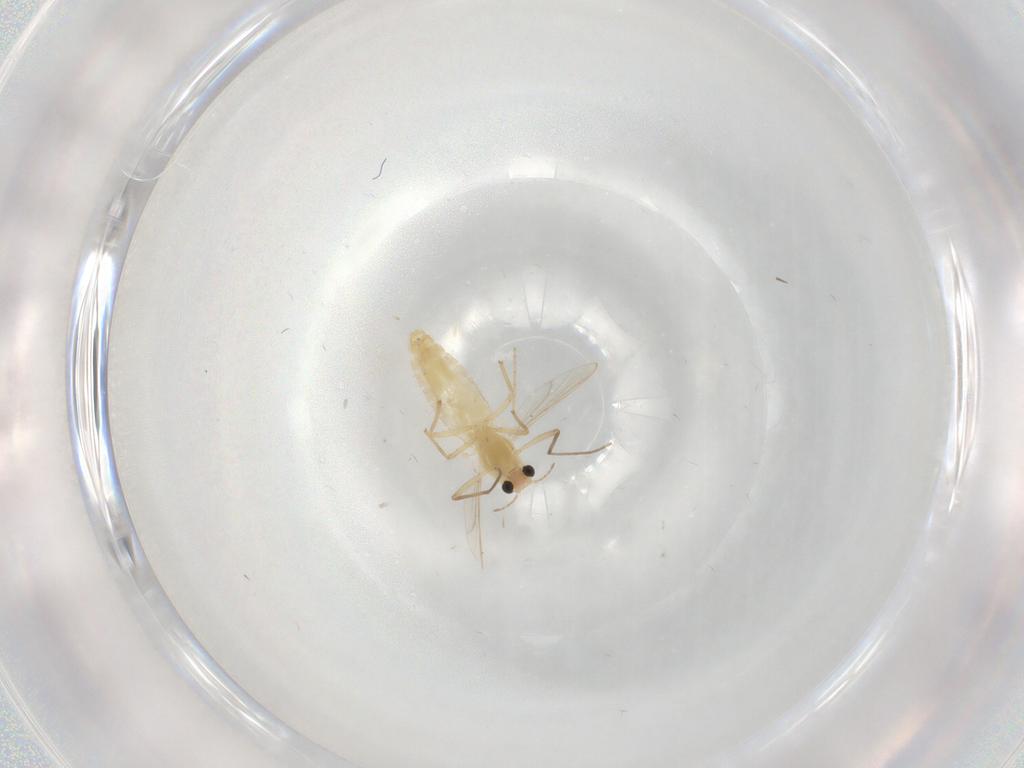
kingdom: Animalia
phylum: Arthropoda
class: Insecta
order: Diptera
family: Chironomidae
